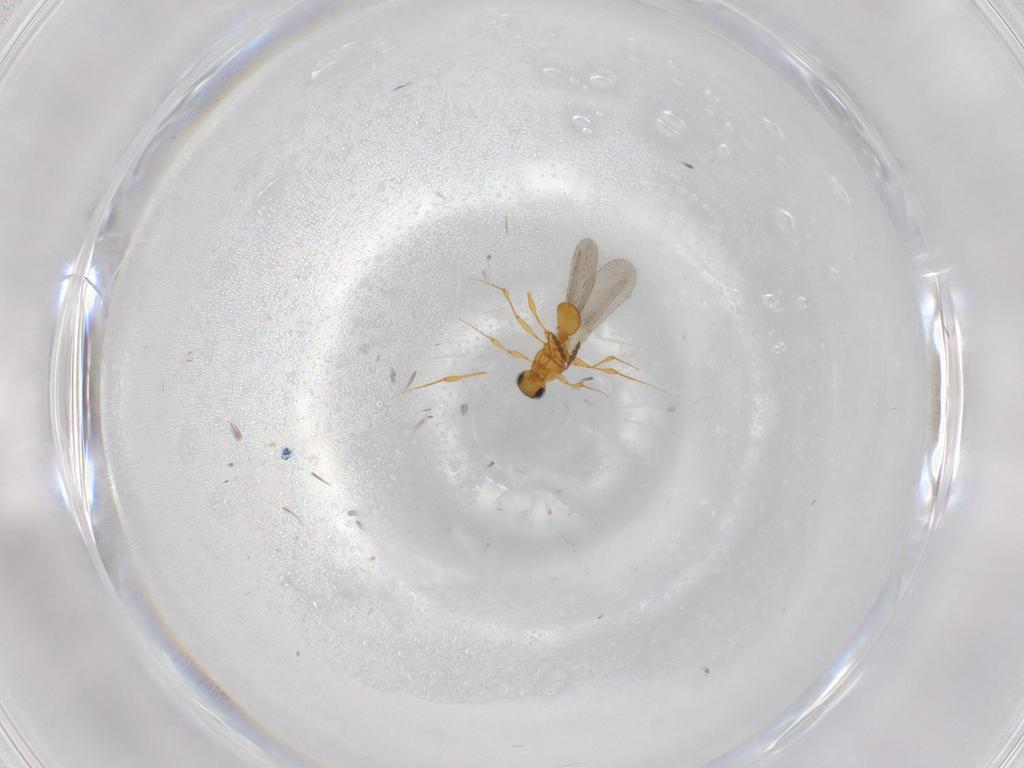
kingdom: Animalia
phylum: Arthropoda
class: Insecta
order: Hymenoptera
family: Platygastridae
